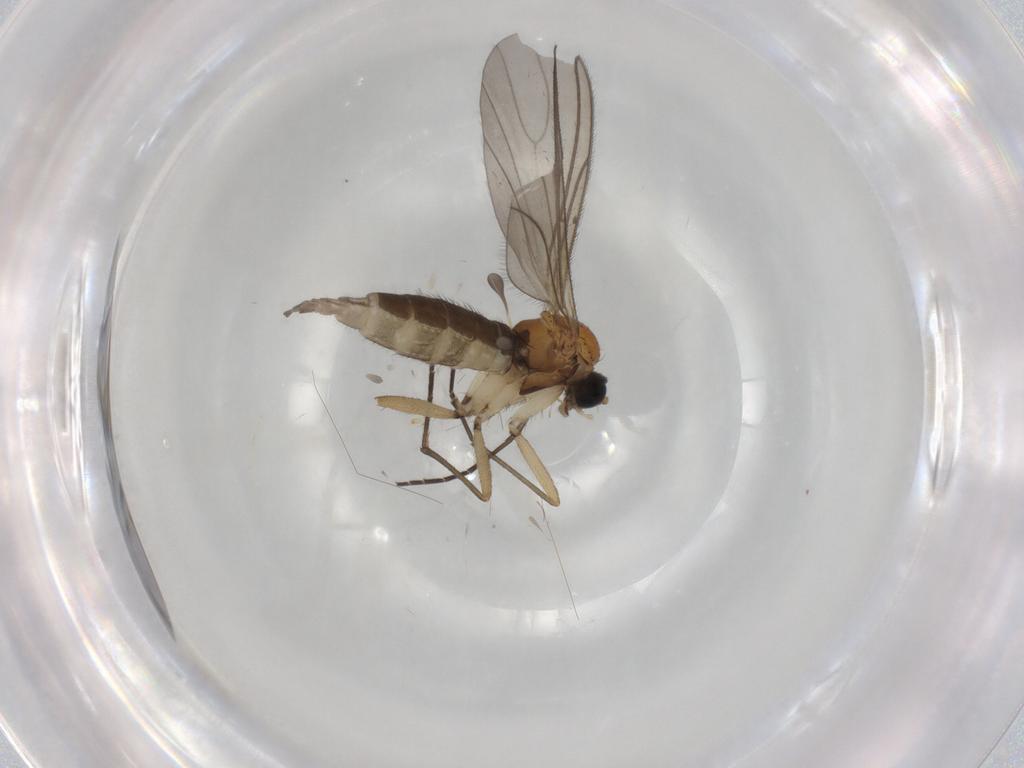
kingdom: Animalia
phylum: Arthropoda
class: Insecta
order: Diptera
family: Sciaridae
